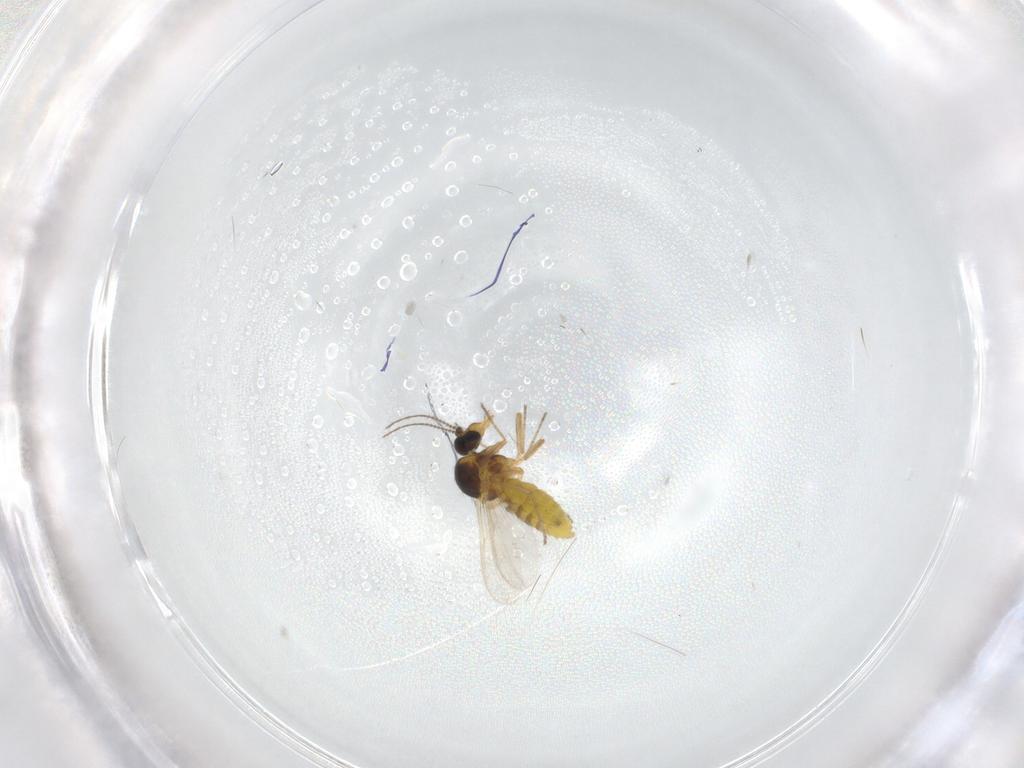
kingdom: Animalia
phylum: Arthropoda
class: Insecta
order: Diptera
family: Ceratopogonidae
